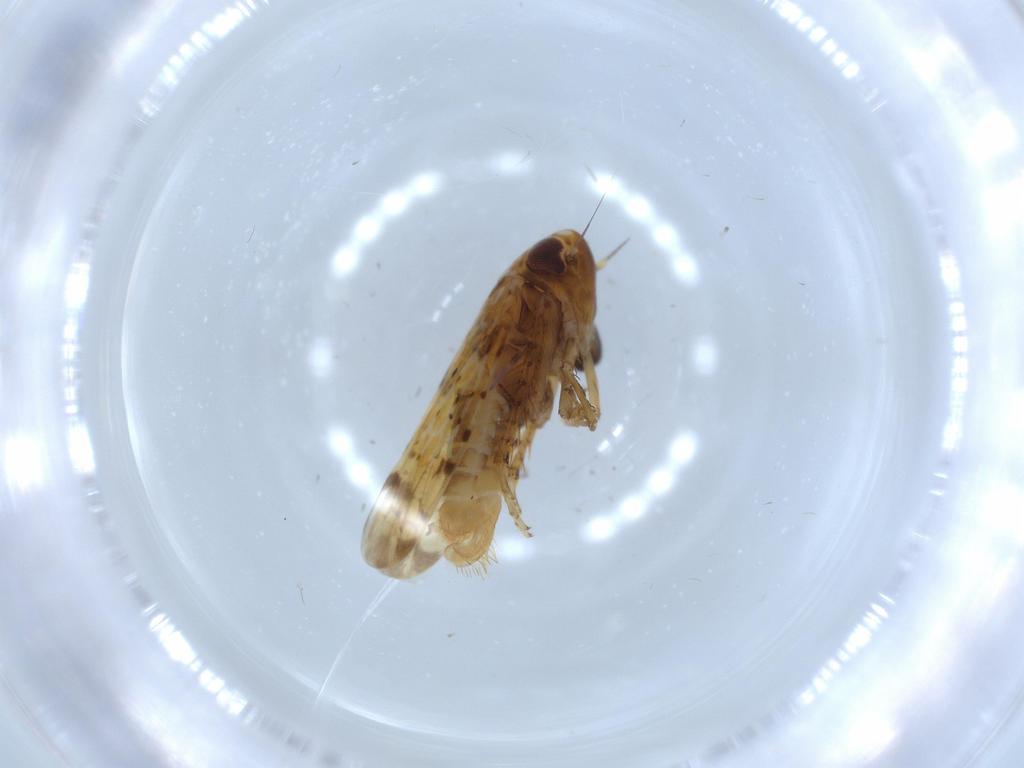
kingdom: Animalia
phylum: Arthropoda
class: Insecta
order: Hemiptera
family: Cicadellidae
